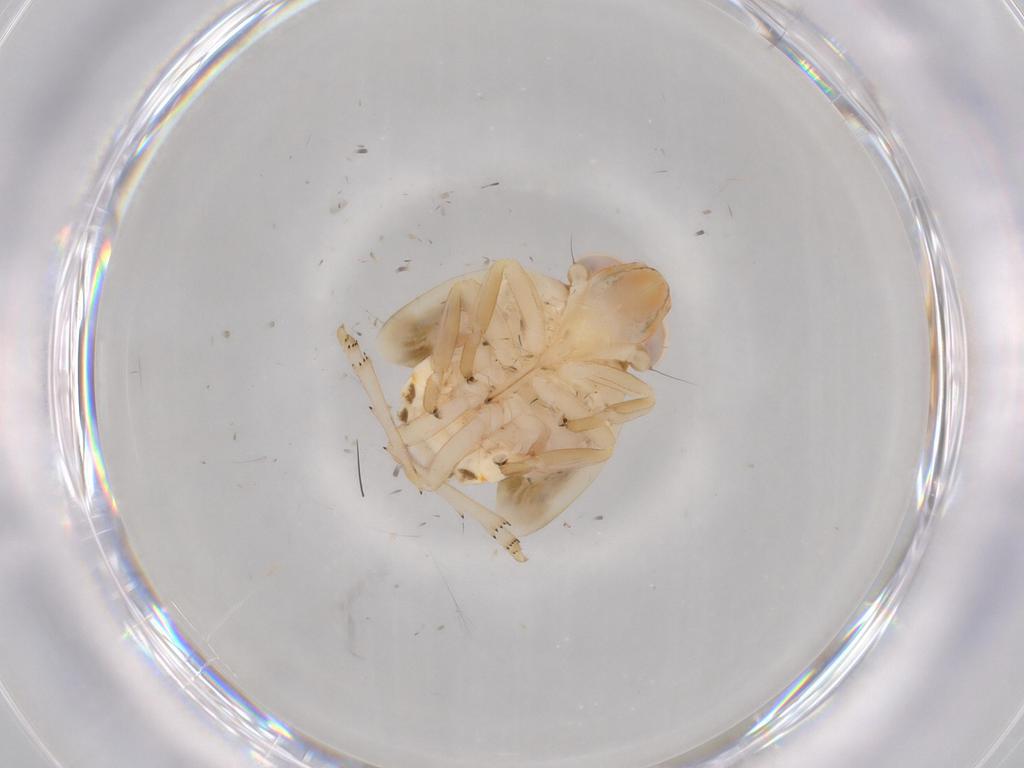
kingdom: Animalia
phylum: Arthropoda
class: Insecta
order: Hemiptera
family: Nogodinidae
